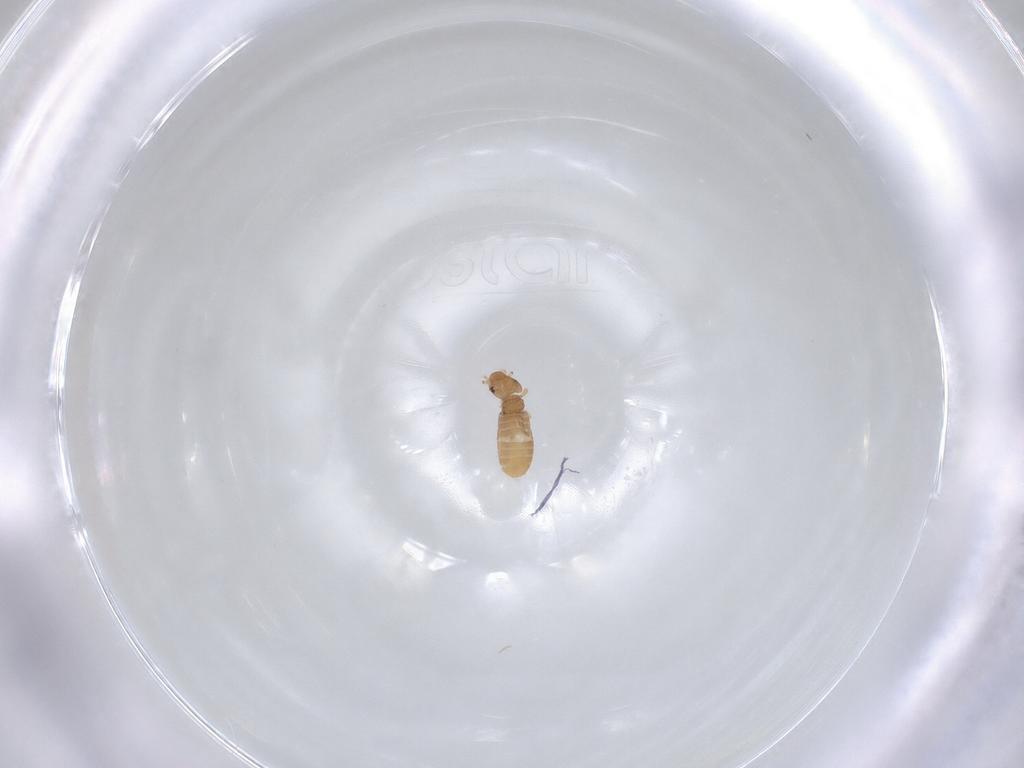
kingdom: Animalia
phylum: Arthropoda
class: Insecta
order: Psocodea
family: Liposcelididae
